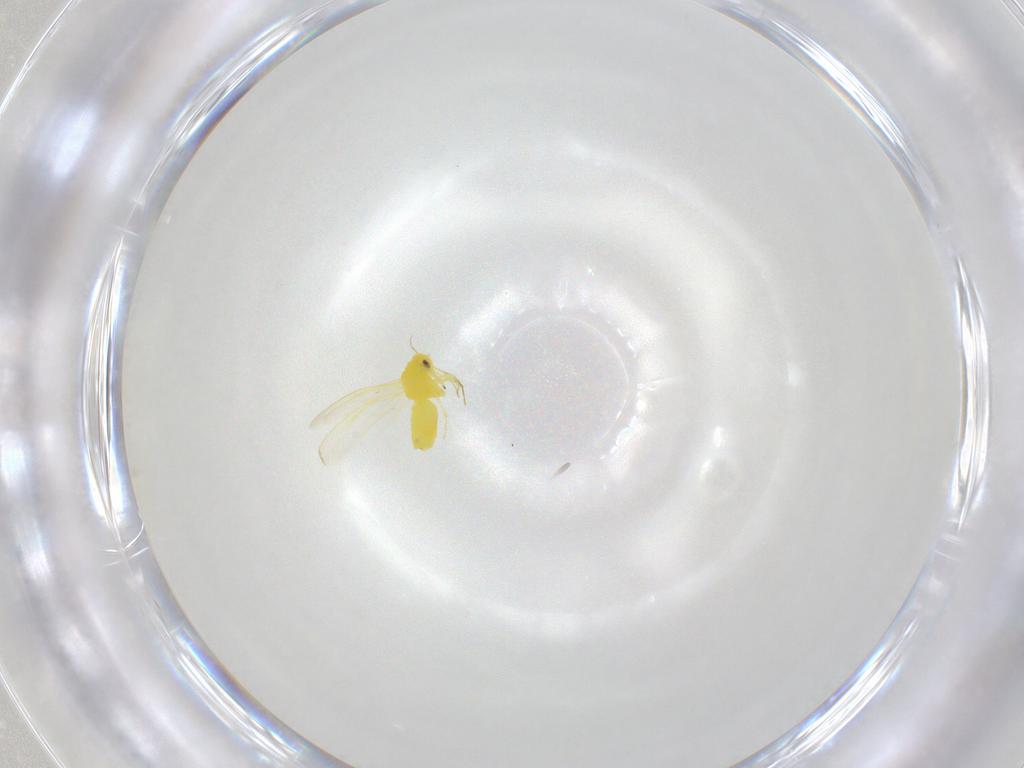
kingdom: Animalia
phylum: Arthropoda
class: Insecta
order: Hemiptera
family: Aleyrodidae
